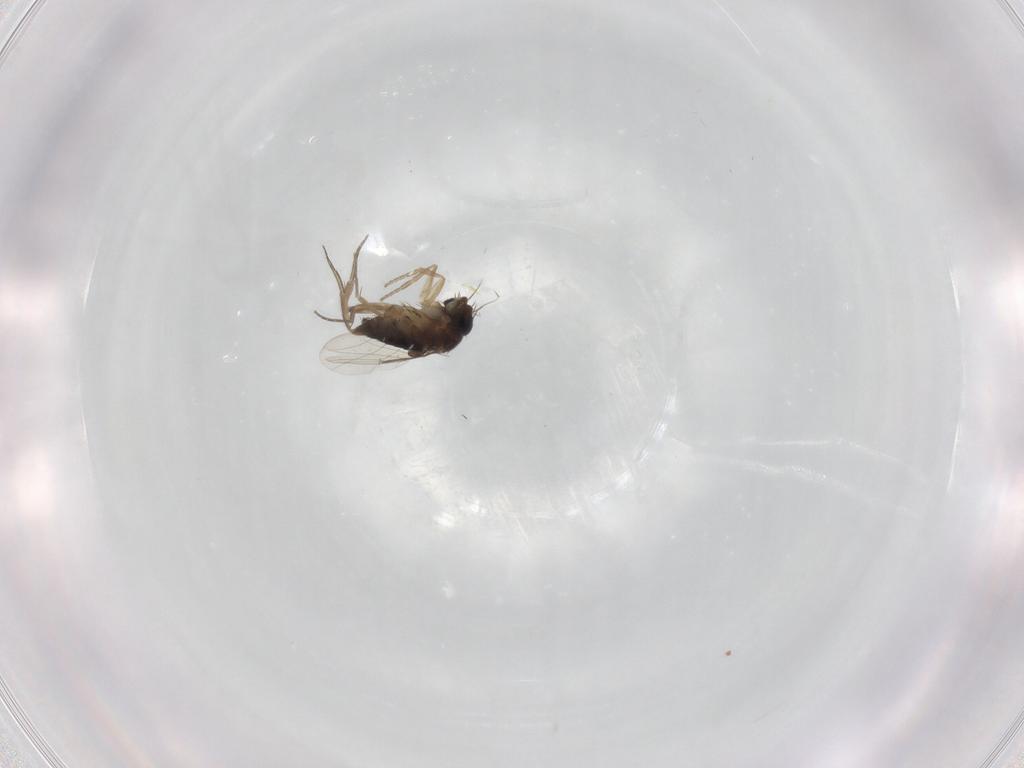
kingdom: Animalia
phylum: Arthropoda
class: Insecta
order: Diptera
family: Phoridae
